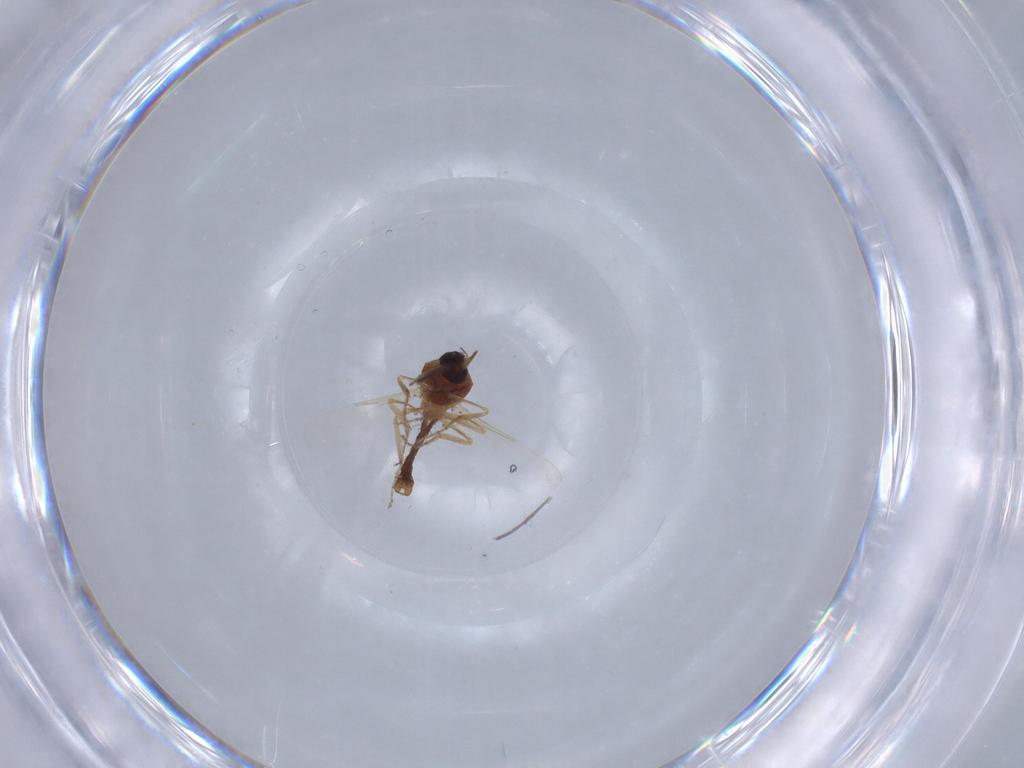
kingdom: Animalia
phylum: Arthropoda
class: Insecta
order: Diptera
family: Ceratopogonidae
